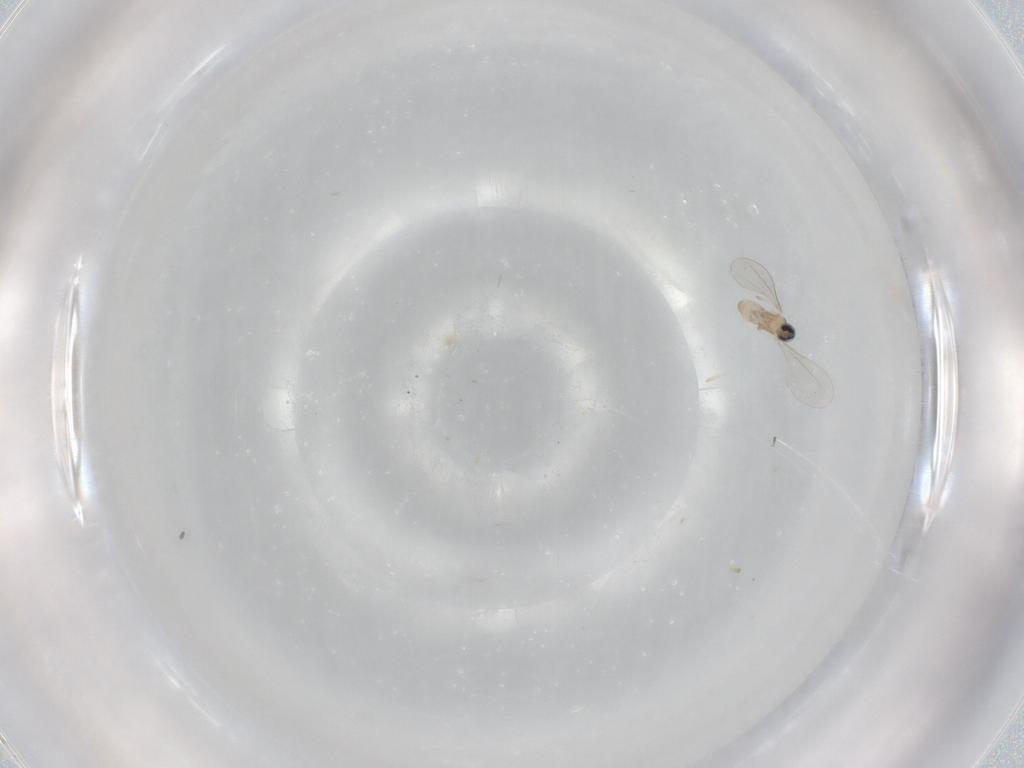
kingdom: Animalia
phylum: Arthropoda
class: Insecta
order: Diptera
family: Cecidomyiidae
